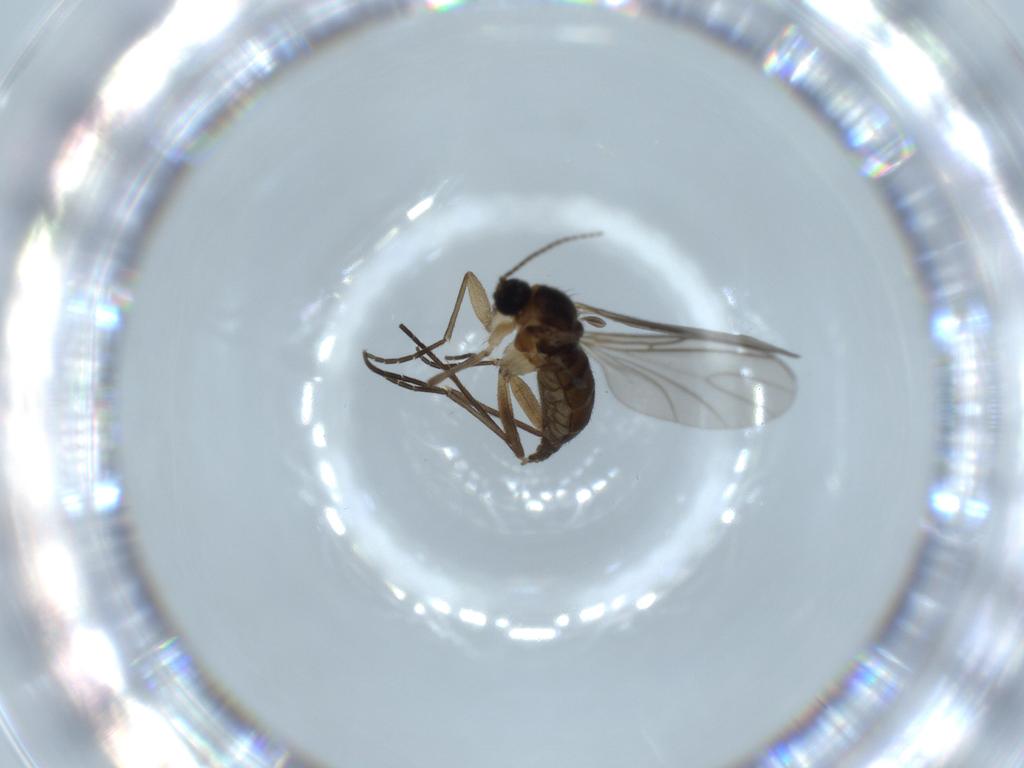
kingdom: Animalia
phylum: Arthropoda
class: Insecta
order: Diptera
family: Sciaridae
